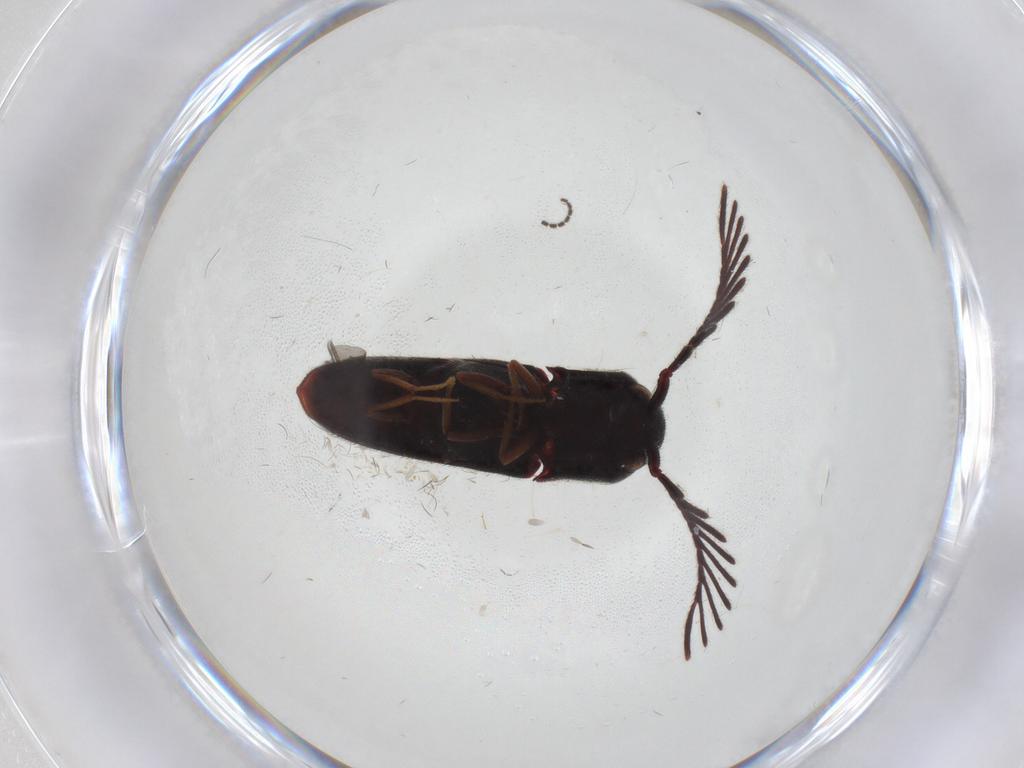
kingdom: Animalia
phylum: Arthropoda
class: Insecta
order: Coleoptera
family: Eucnemidae
